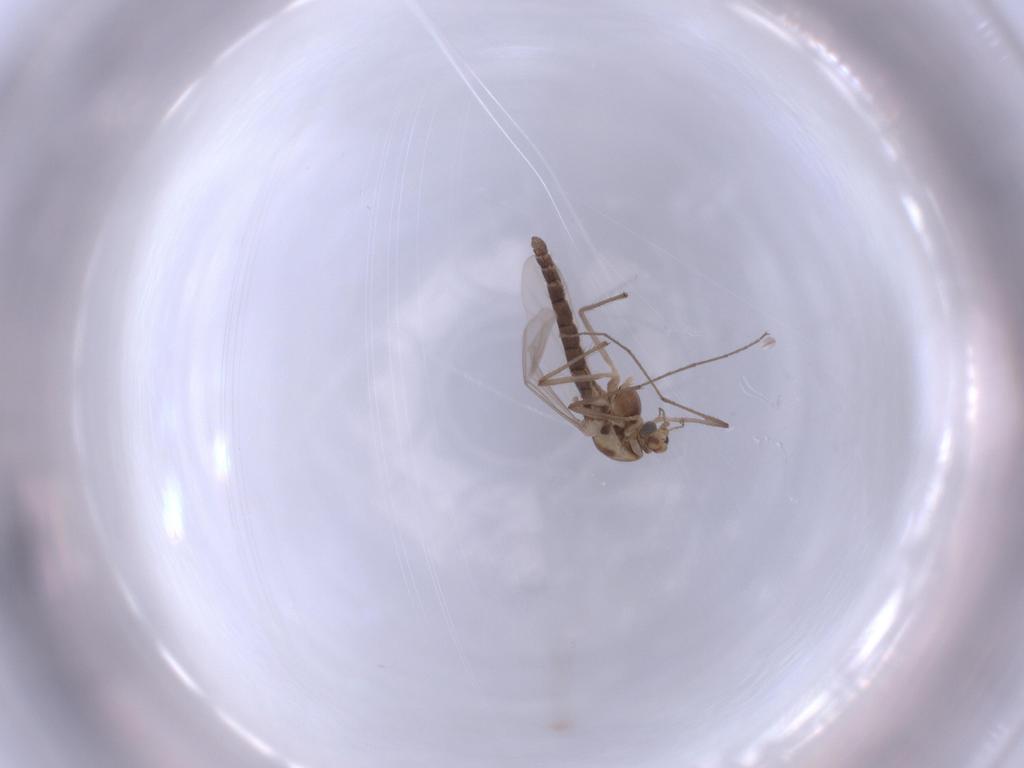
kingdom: Animalia
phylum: Arthropoda
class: Insecta
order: Diptera
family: Chironomidae
